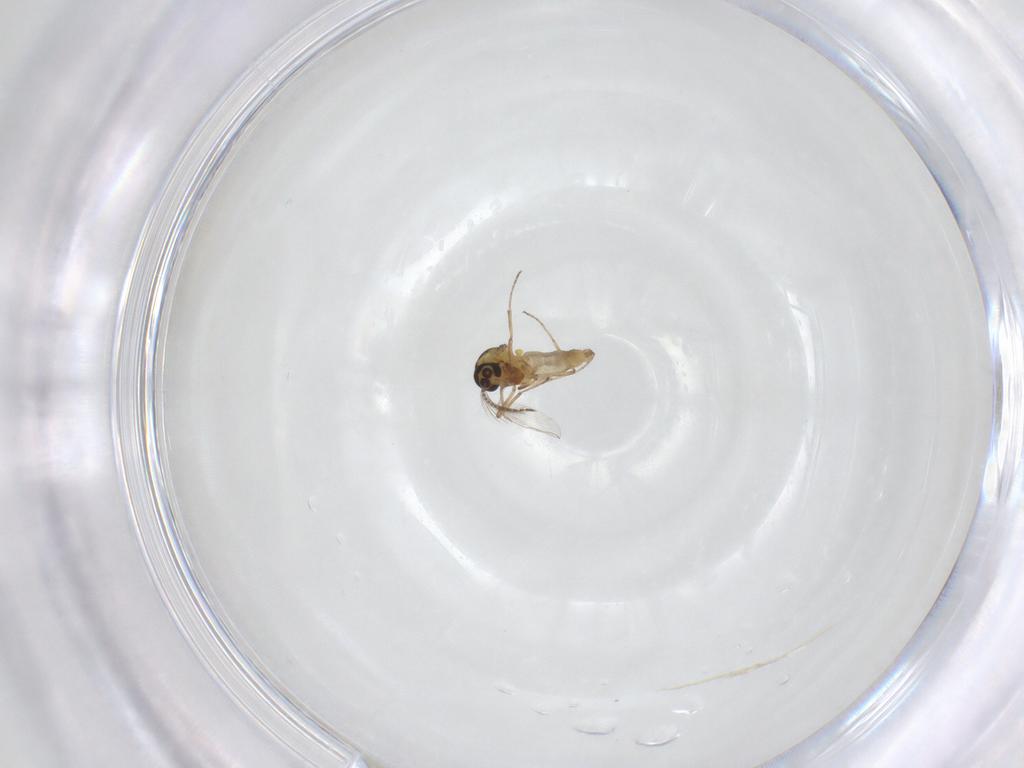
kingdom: Animalia
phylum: Arthropoda
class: Insecta
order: Diptera
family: Ceratopogonidae
